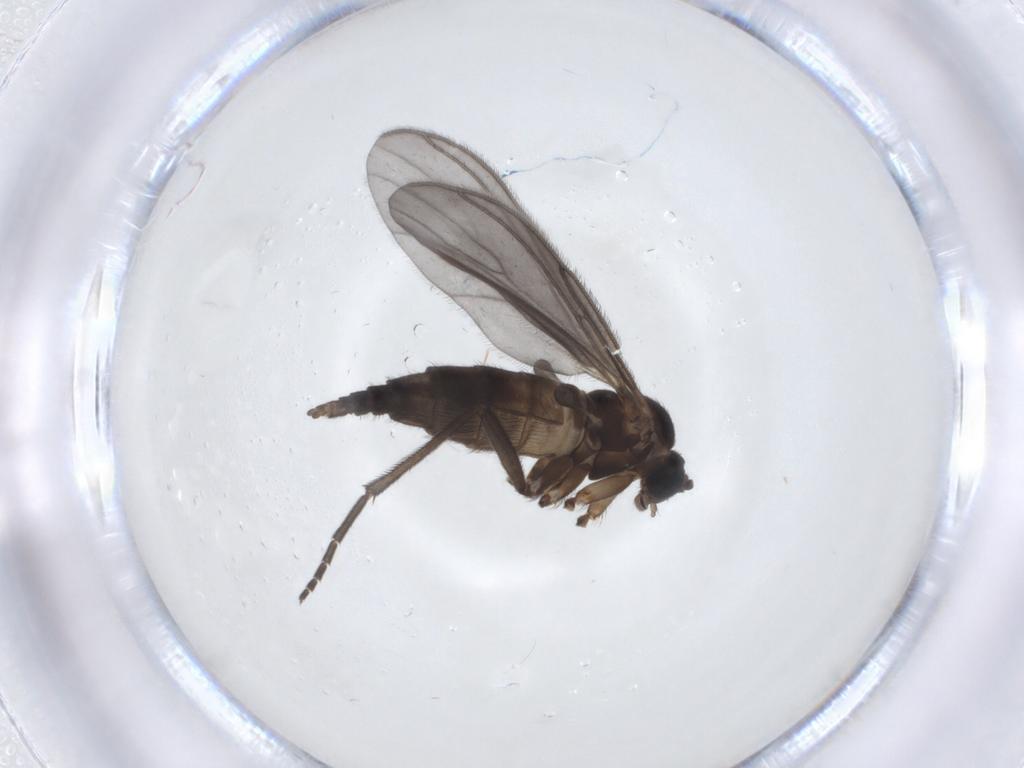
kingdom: Animalia
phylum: Arthropoda
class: Insecta
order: Diptera
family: Sciaridae
